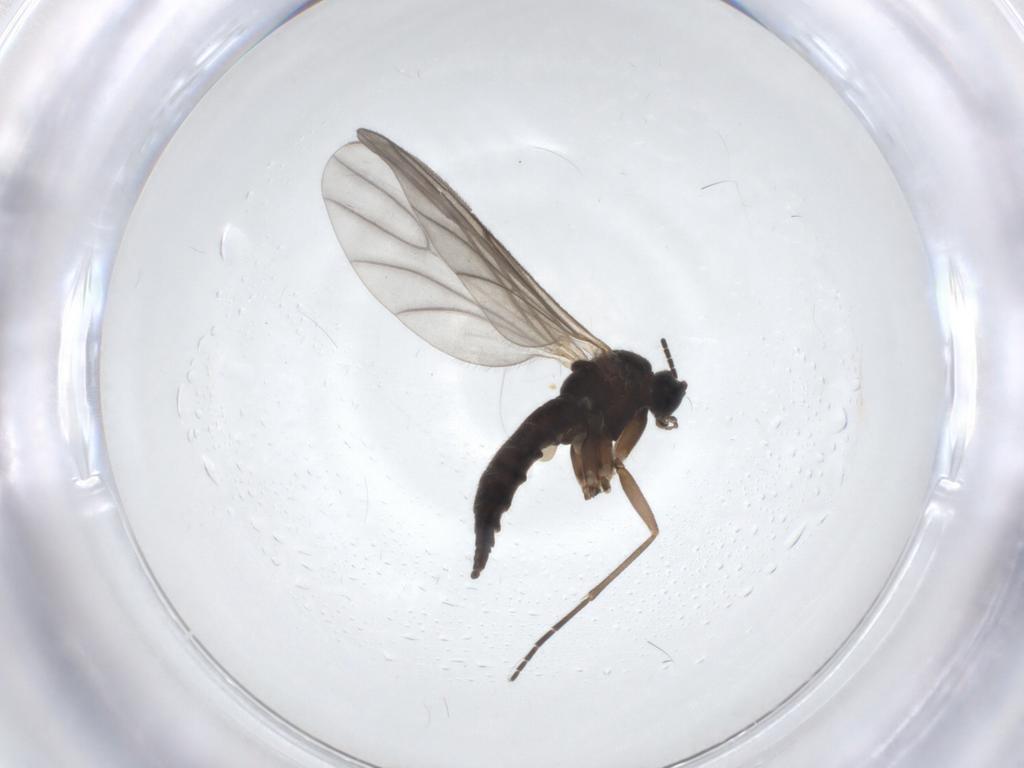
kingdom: Animalia
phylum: Arthropoda
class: Insecta
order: Diptera
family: Sciaridae
